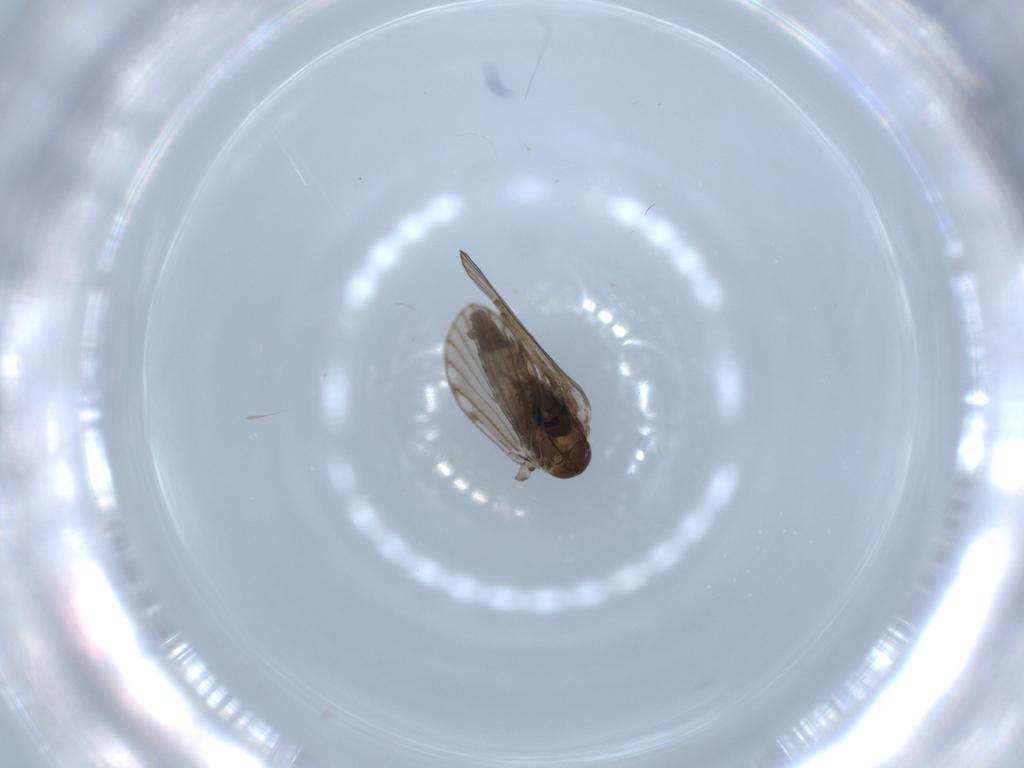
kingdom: Animalia
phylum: Arthropoda
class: Insecta
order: Diptera
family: Psychodidae
